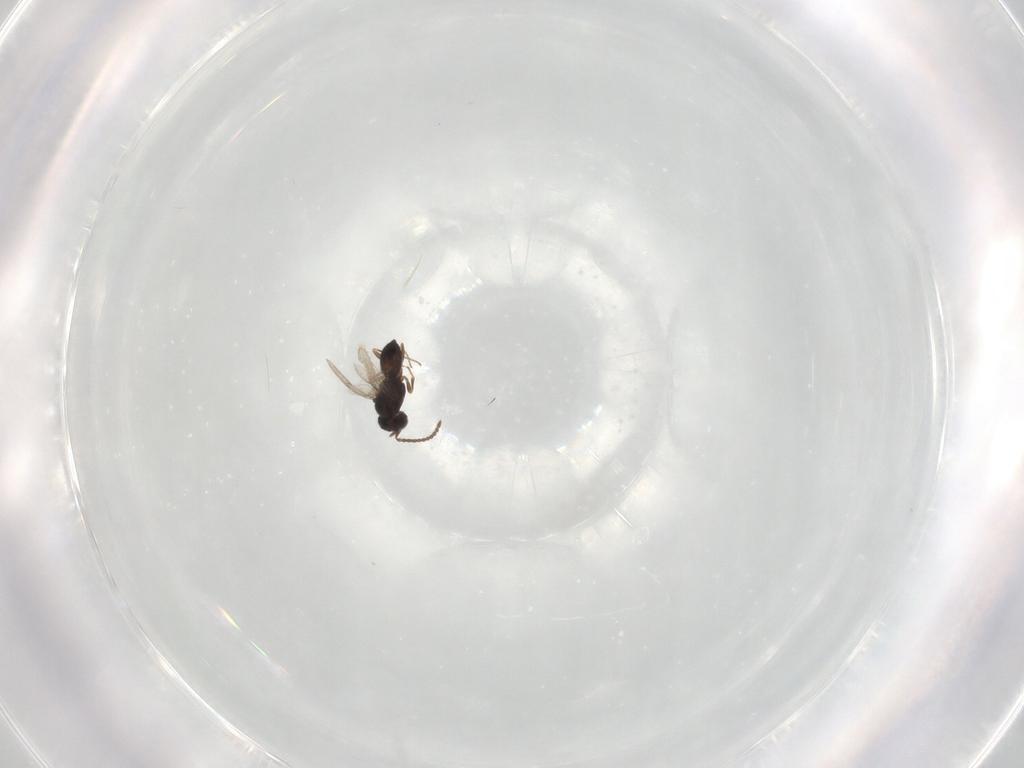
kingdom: Animalia
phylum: Arthropoda
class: Insecta
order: Hymenoptera
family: Scelionidae
